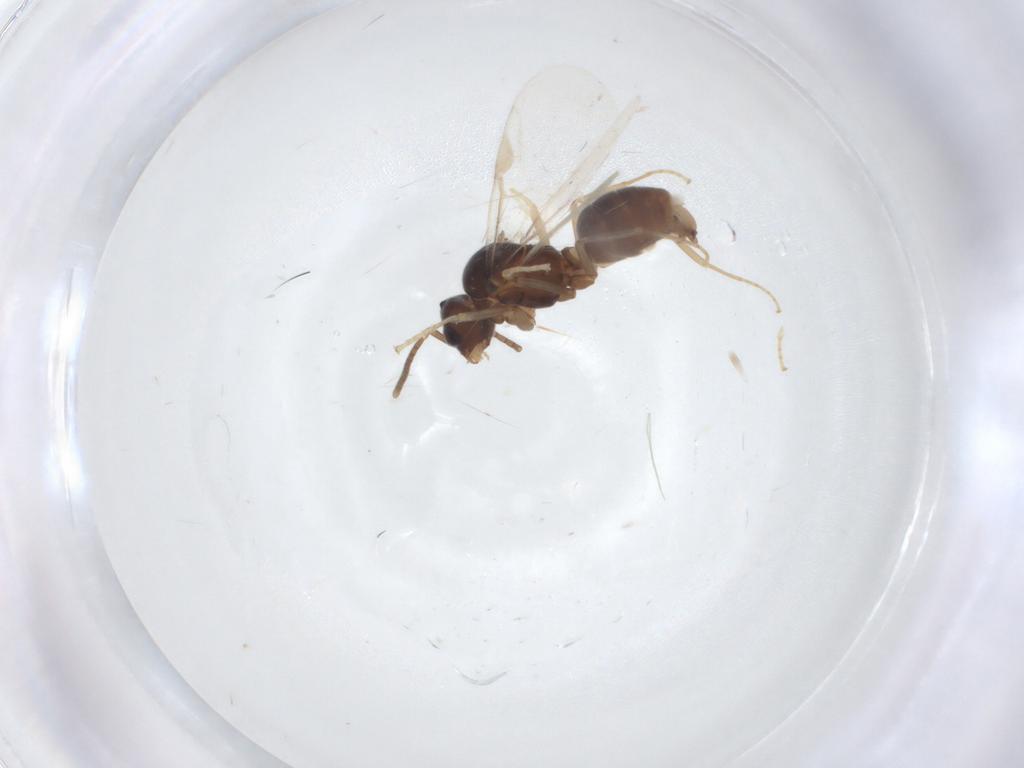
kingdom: Animalia
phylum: Arthropoda
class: Insecta
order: Hymenoptera
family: Formicidae
